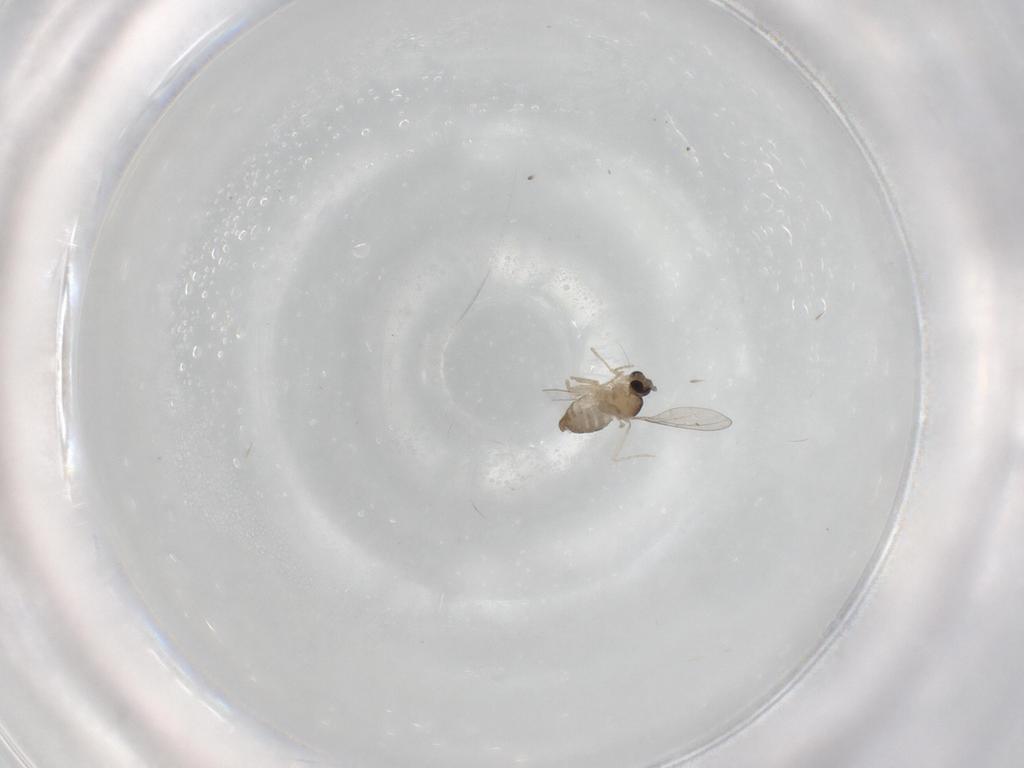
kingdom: Animalia
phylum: Arthropoda
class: Insecta
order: Diptera
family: Cecidomyiidae
